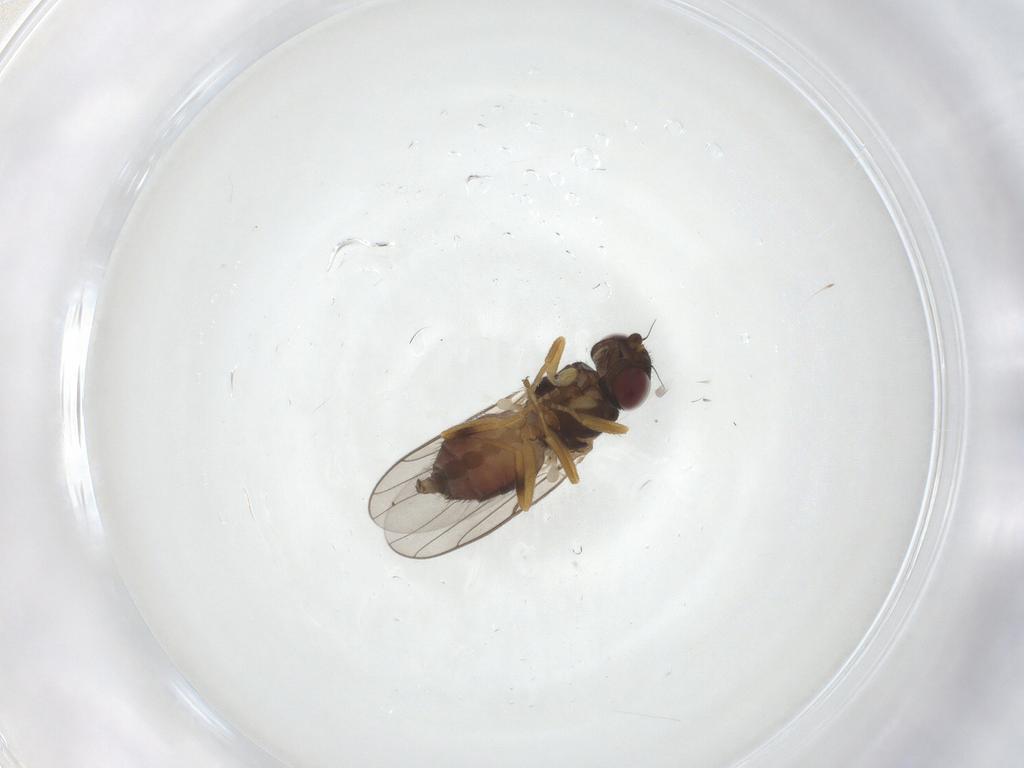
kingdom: Animalia
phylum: Arthropoda
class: Insecta
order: Diptera
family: Chloropidae
